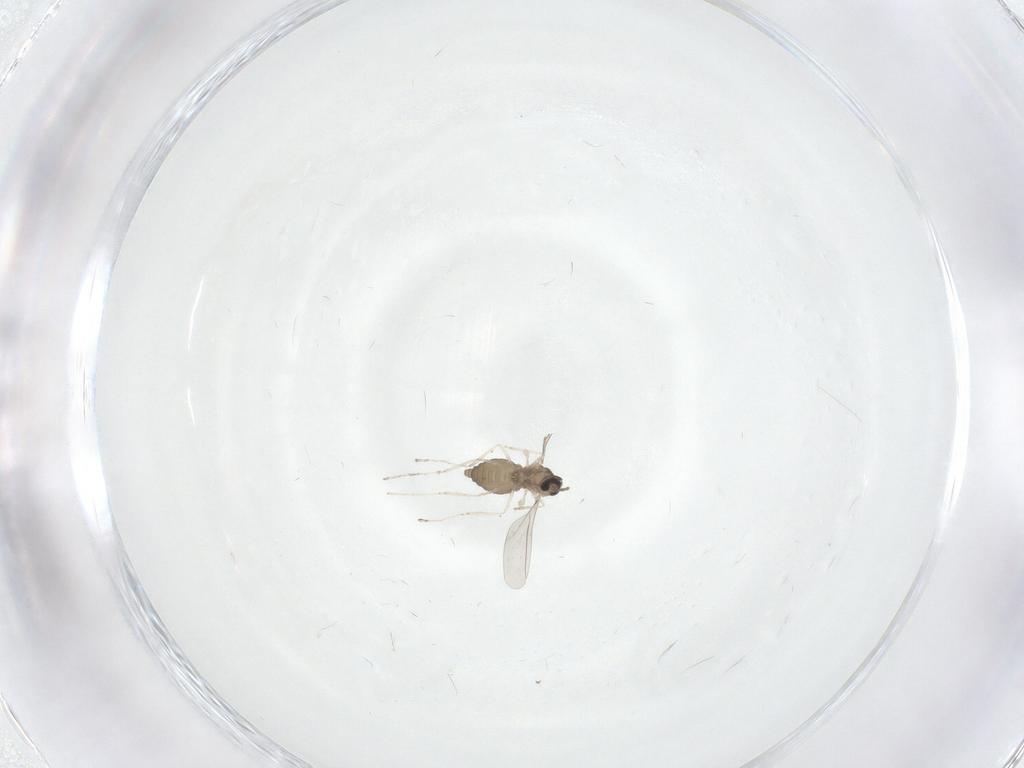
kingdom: Animalia
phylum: Arthropoda
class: Insecta
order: Diptera
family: Cecidomyiidae
